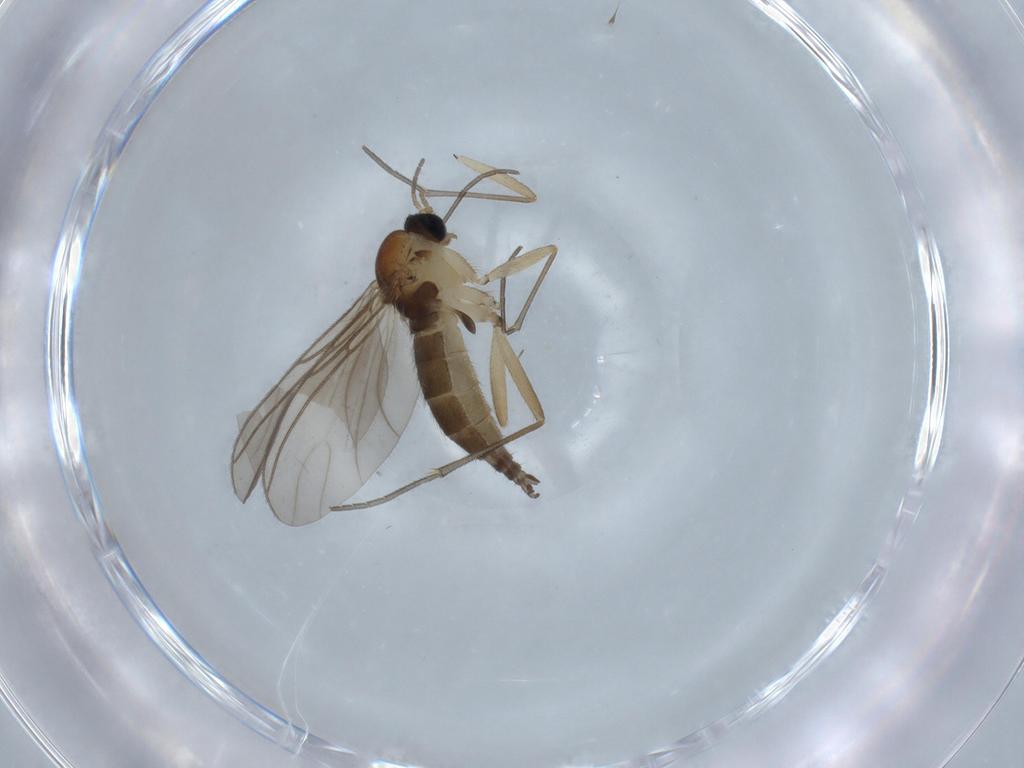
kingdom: Animalia
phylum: Arthropoda
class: Insecta
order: Diptera
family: Sciaridae
